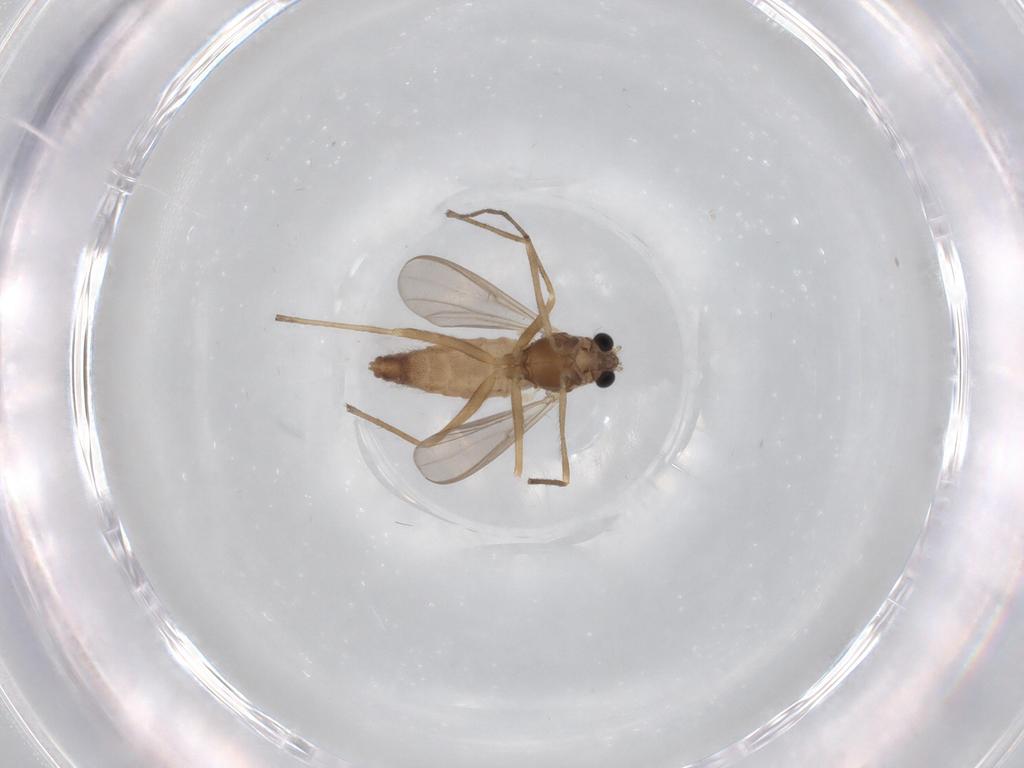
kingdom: Animalia
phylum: Arthropoda
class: Insecta
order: Diptera
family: Chironomidae
